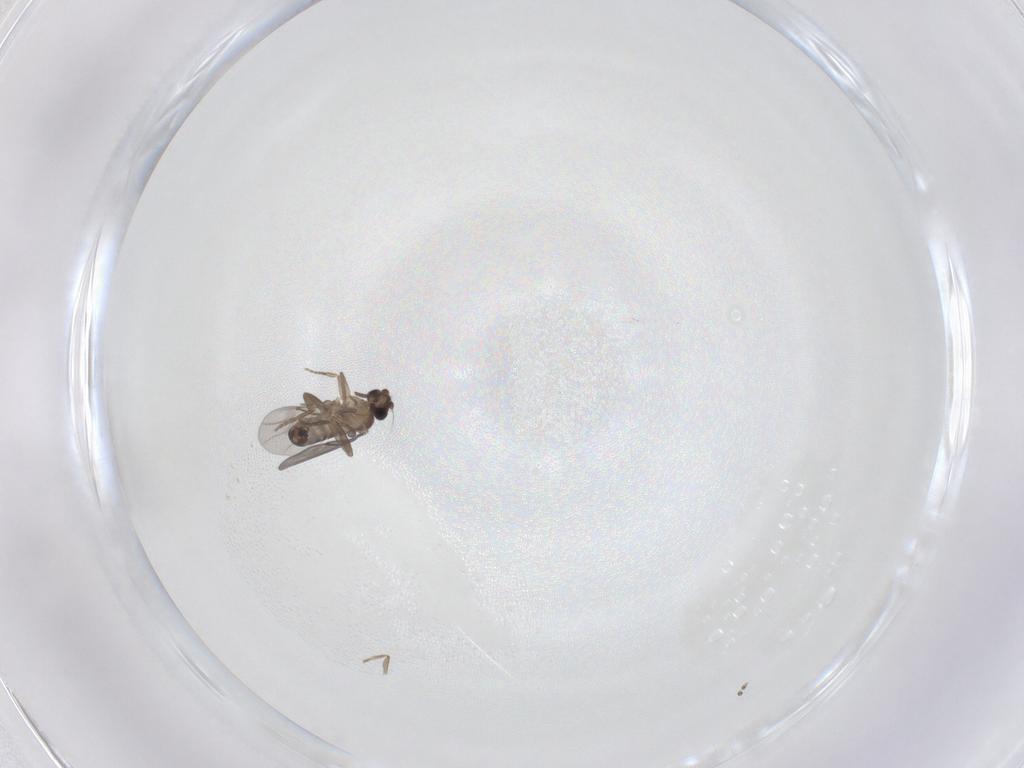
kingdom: Animalia
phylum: Arthropoda
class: Insecta
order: Diptera
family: Psychodidae
